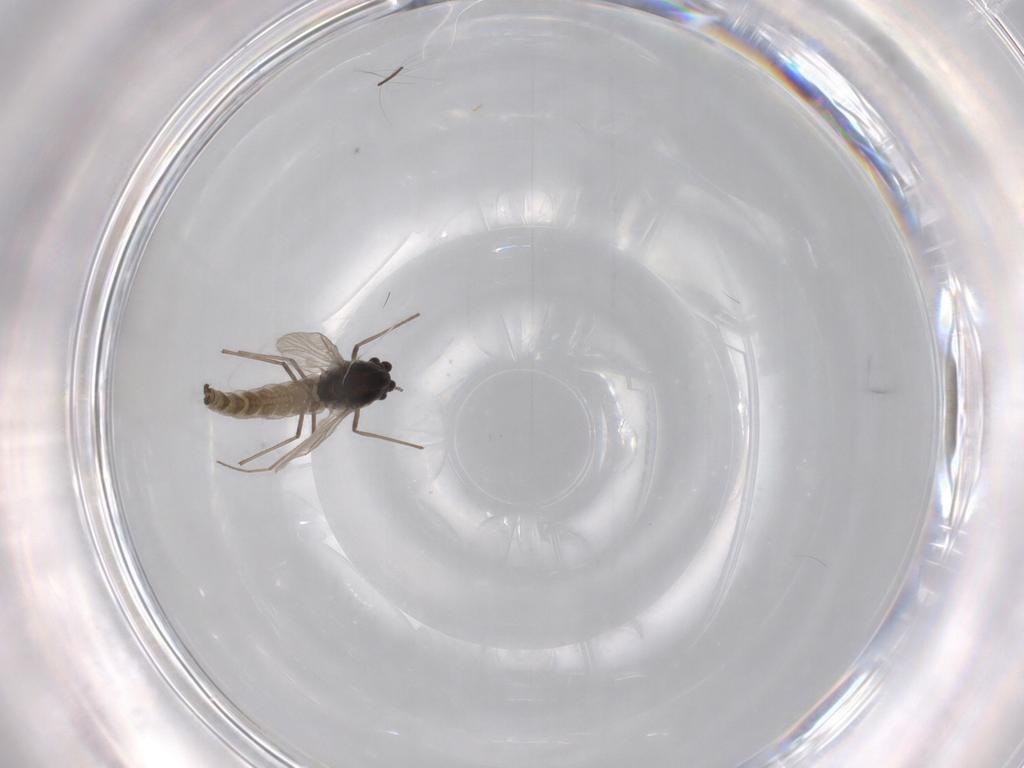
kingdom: Animalia
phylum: Arthropoda
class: Insecta
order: Diptera
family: Chironomidae
